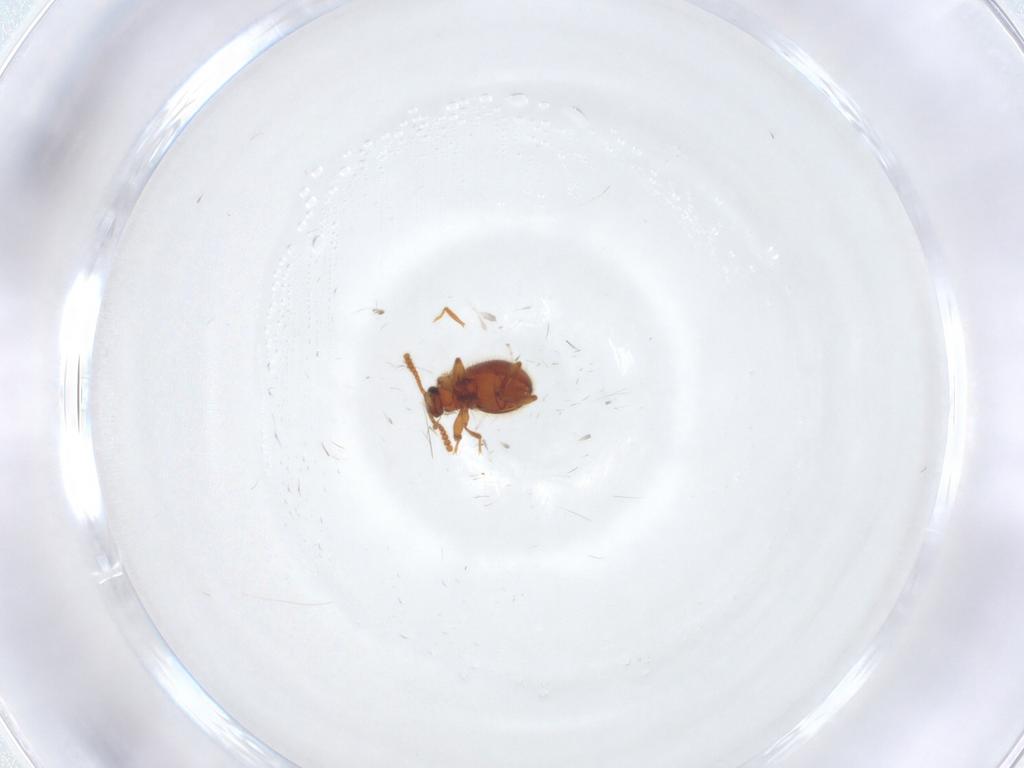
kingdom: Animalia
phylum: Arthropoda
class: Insecta
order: Coleoptera
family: Staphylinidae
